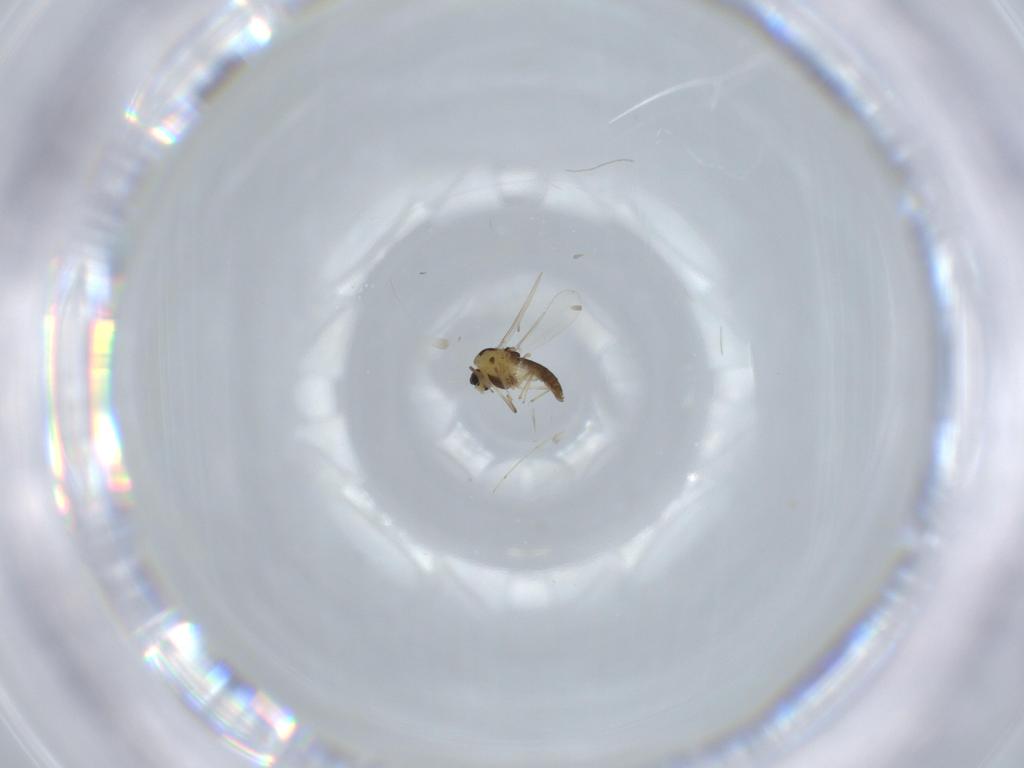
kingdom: Animalia
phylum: Arthropoda
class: Insecta
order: Diptera
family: Chironomidae
